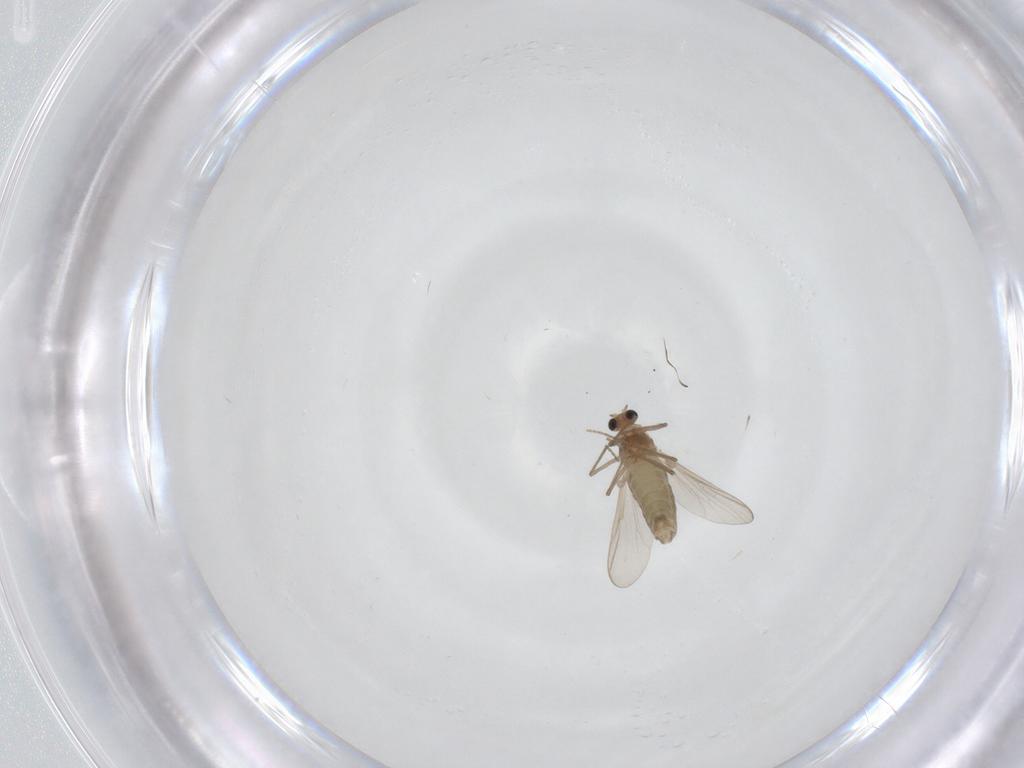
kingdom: Animalia
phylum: Arthropoda
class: Insecta
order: Diptera
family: Chironomidae
